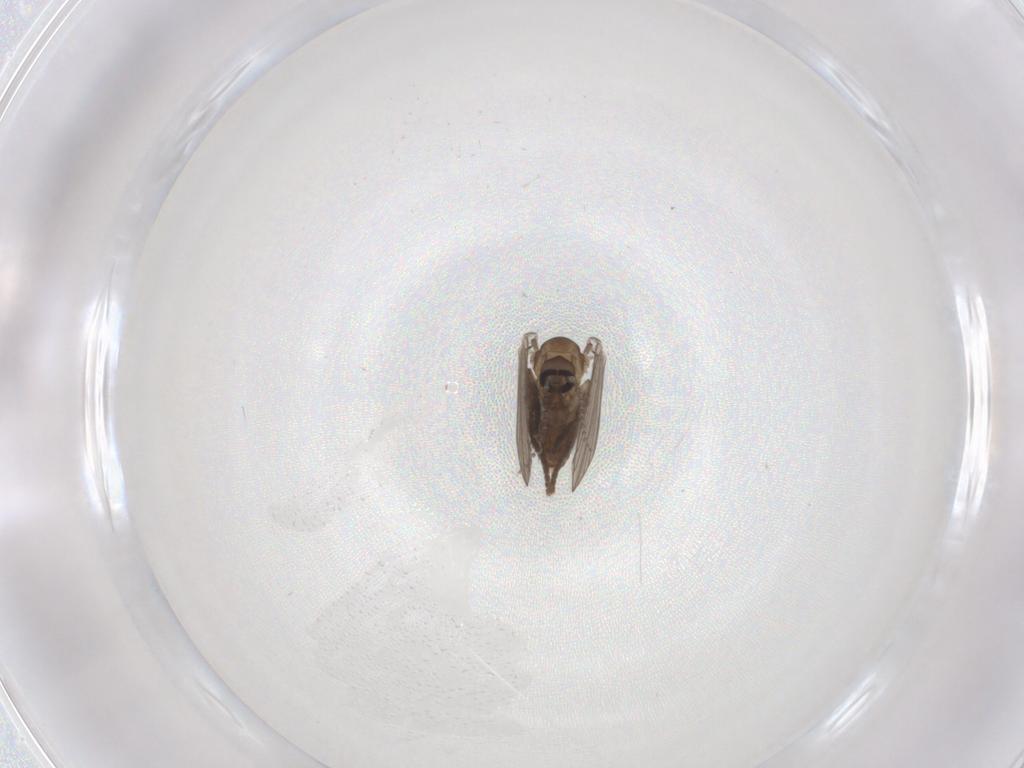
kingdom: Animalia
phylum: Arthropoda
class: Insecta
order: Diptera
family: Sciaridae
